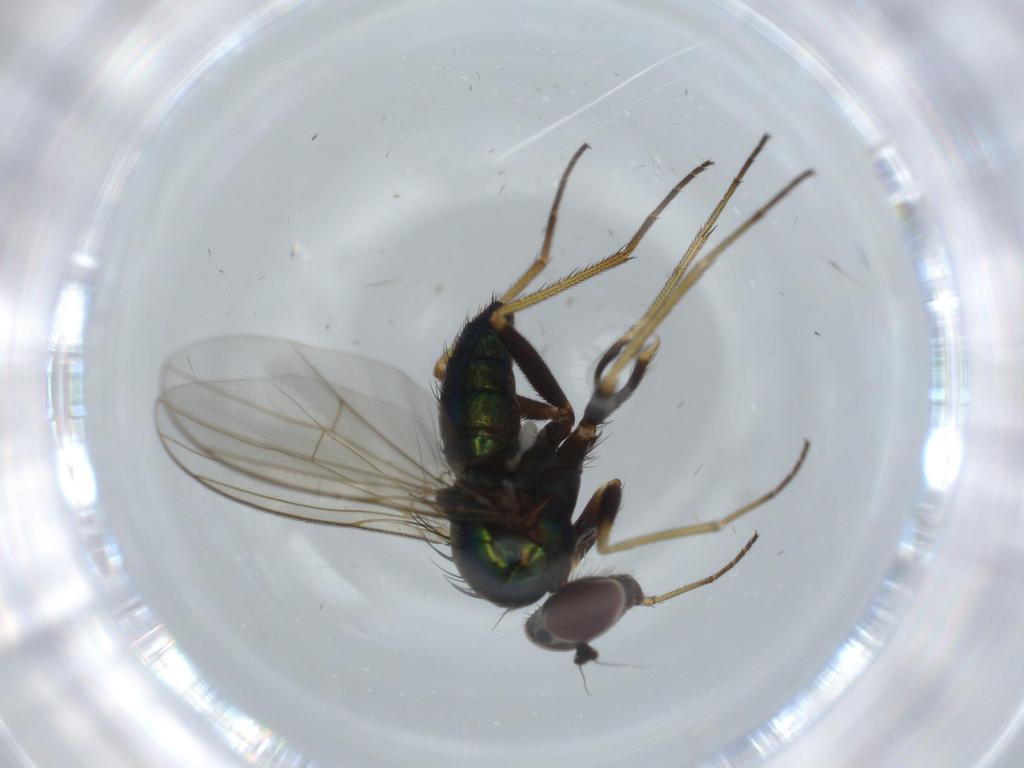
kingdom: Animalia
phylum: Arthropoda
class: Insecta
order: Diptera
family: Dolichopodidae
